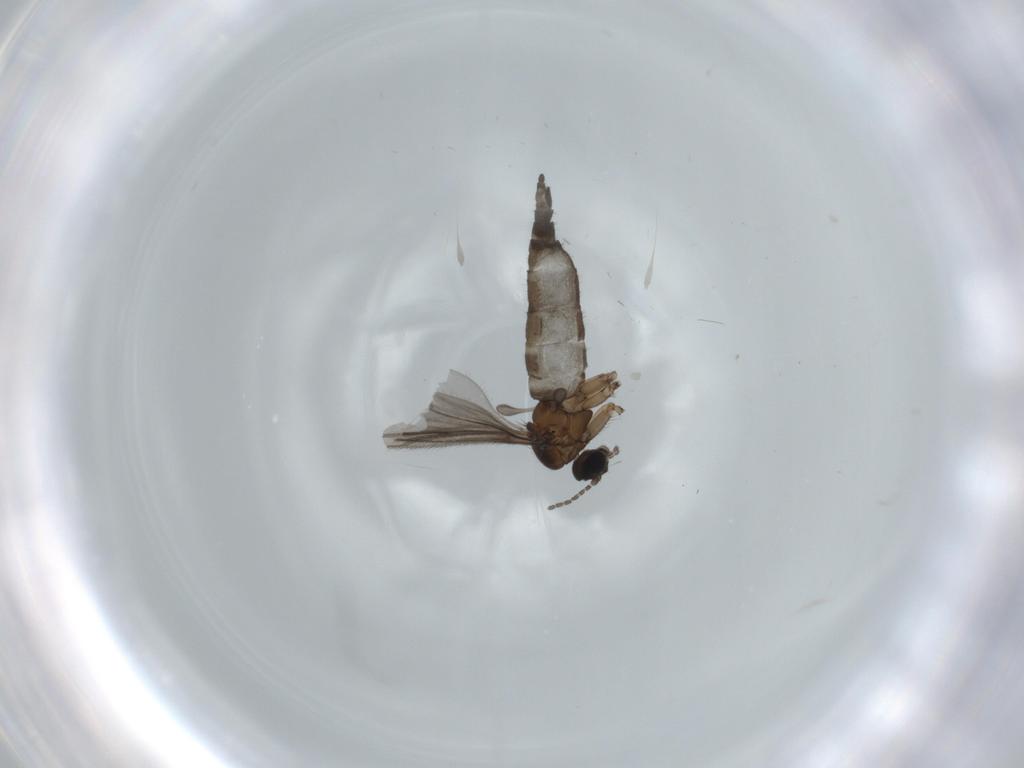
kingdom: Animalia
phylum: Arthropoda
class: Insecta
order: Diptera
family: Sciaridae
